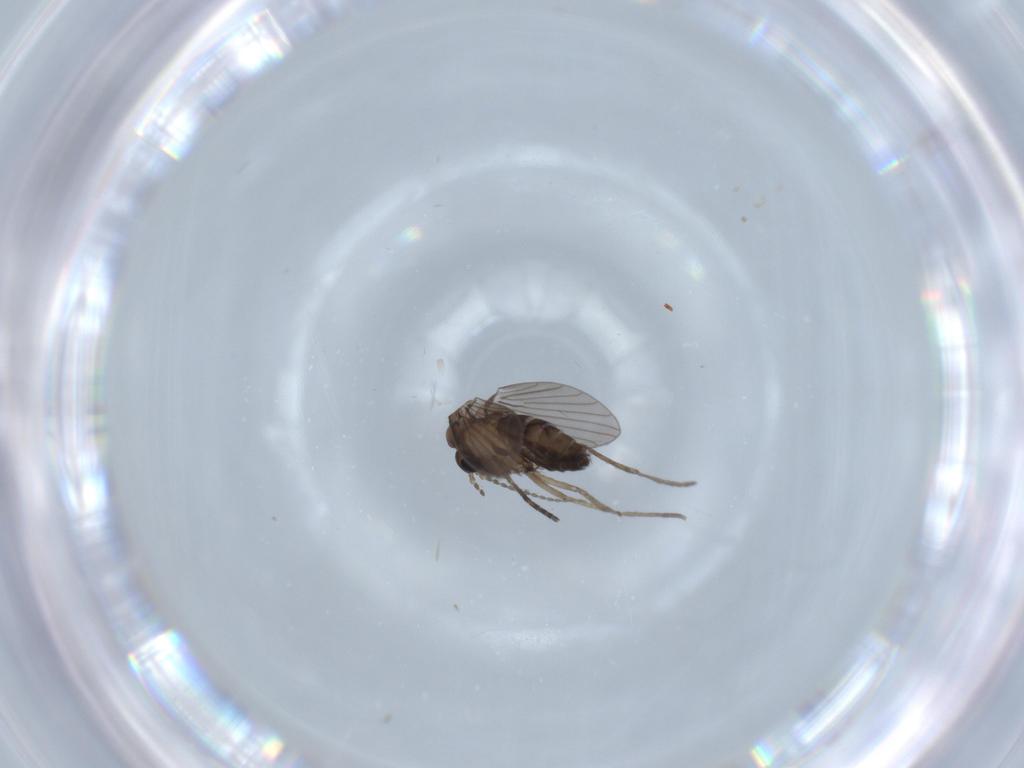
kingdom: Animalia
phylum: Arthropoda
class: Insecta
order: Diptera
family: Psychodidae
